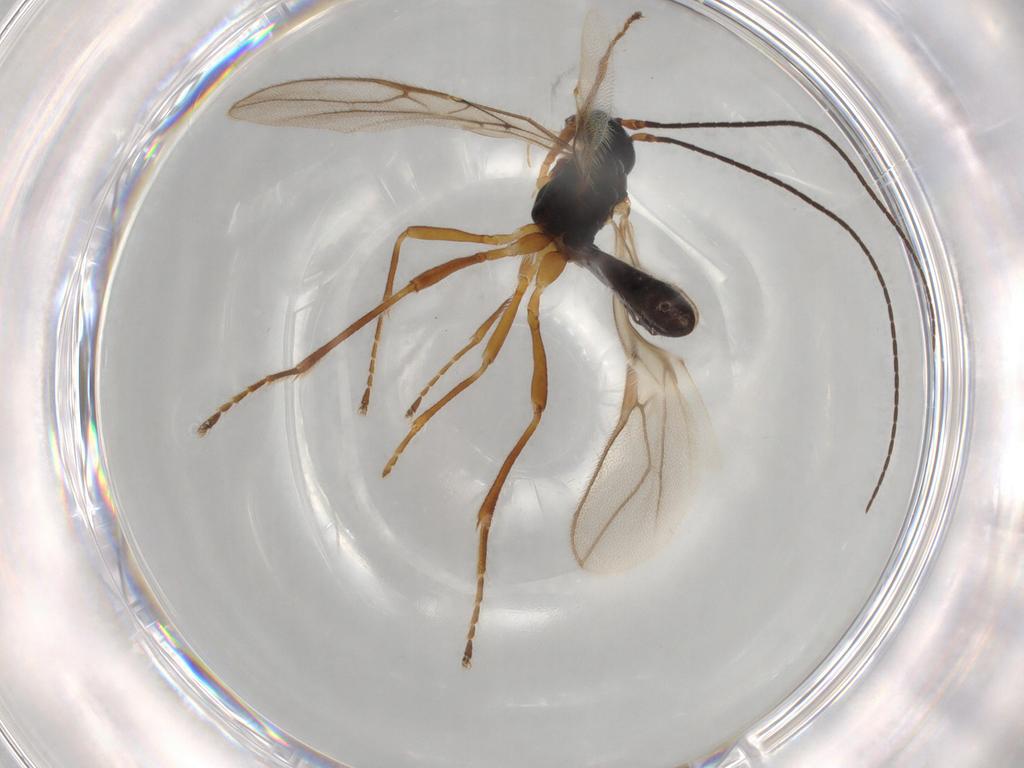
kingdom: Animalia
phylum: Arthropoda
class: Insecta
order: Hymenoptera
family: Ichneumonidae
